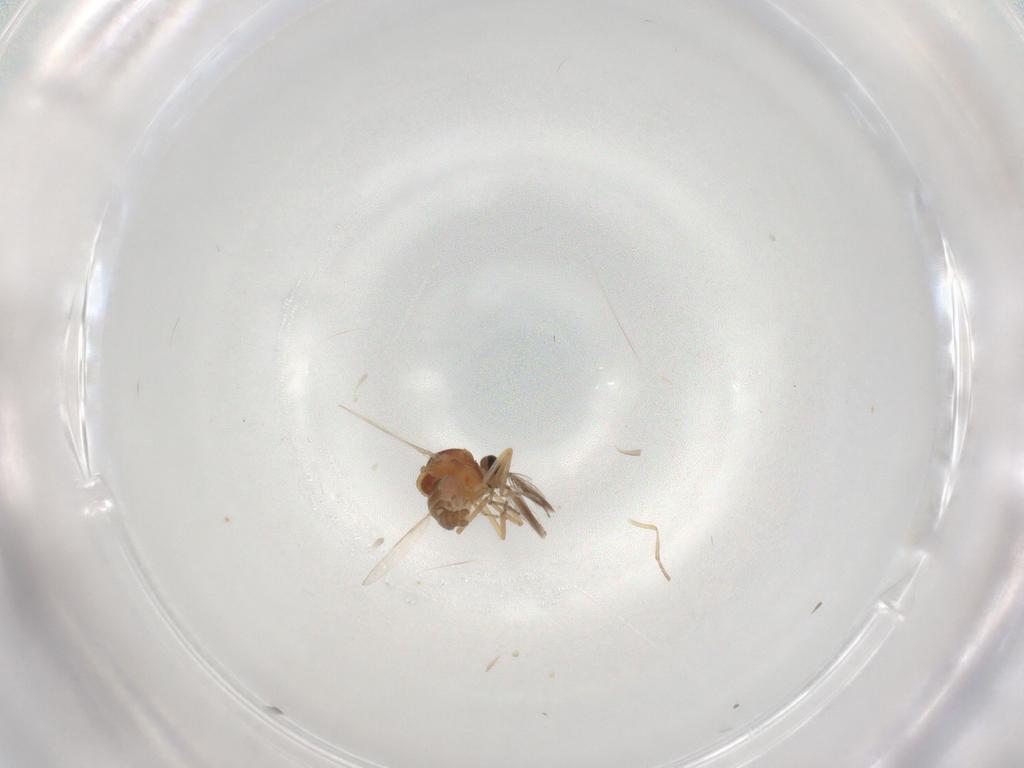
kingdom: Animalia
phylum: Arthropoda
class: Insecta
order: Diptera
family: Ceratopogonidae
